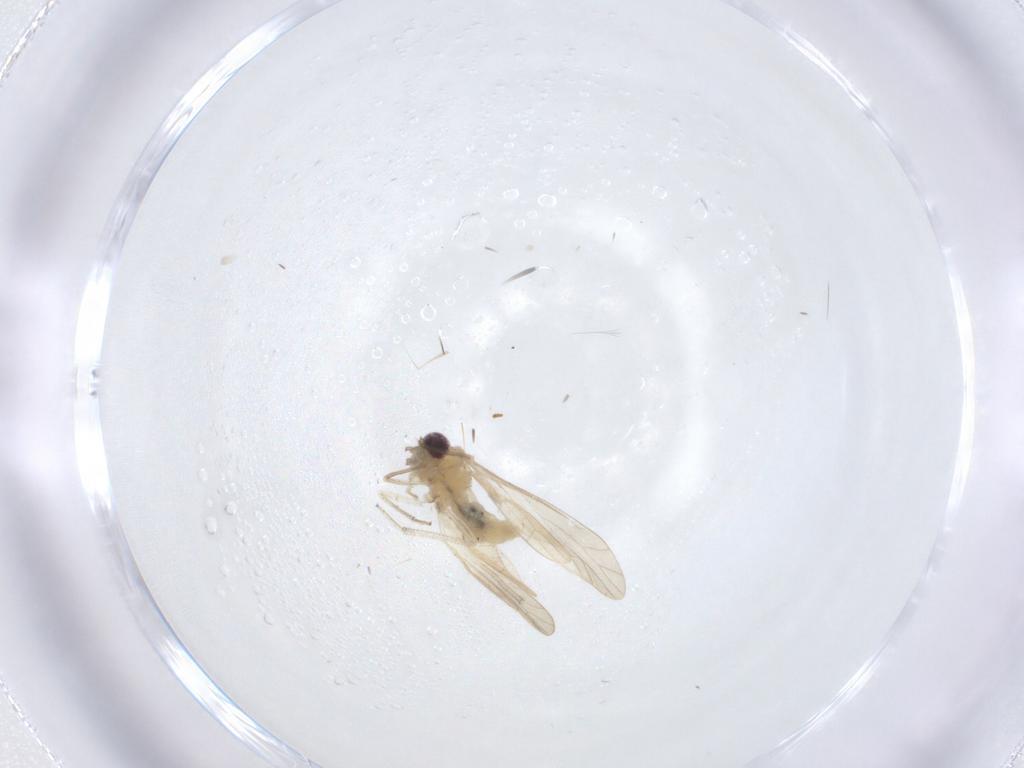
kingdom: Animalia
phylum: Arthropoda
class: Insecta
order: Psocodea
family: Caeciliusidae
